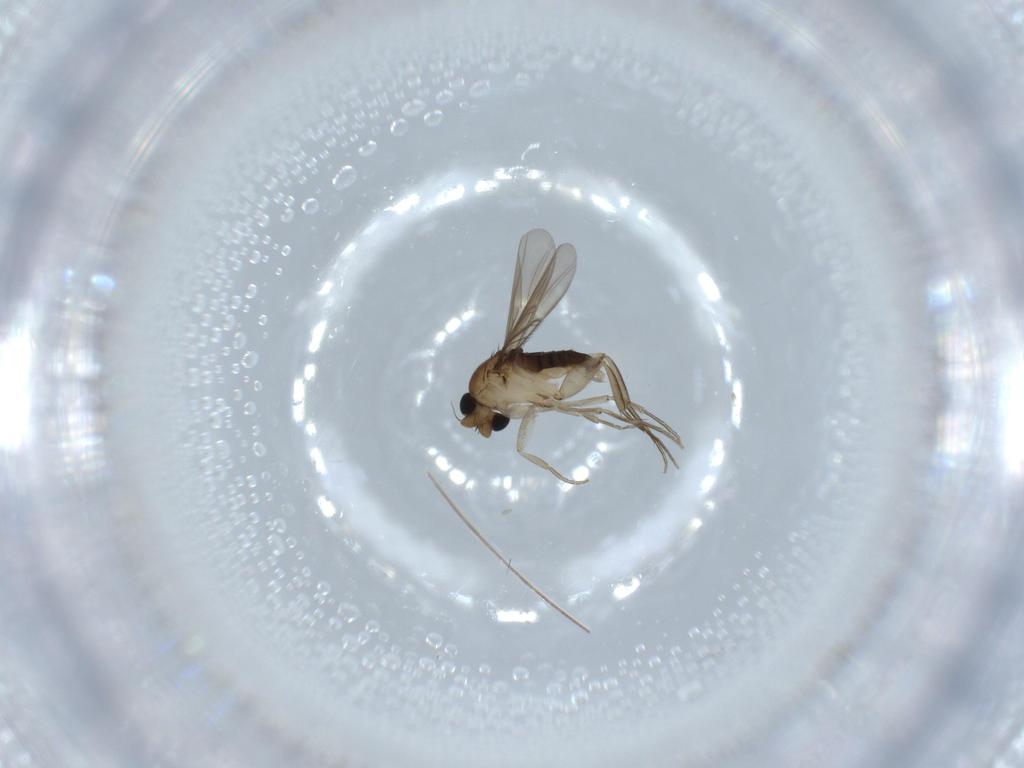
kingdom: Animalia
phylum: Arthropoda
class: Insecta
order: Diptera
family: Phoridae
